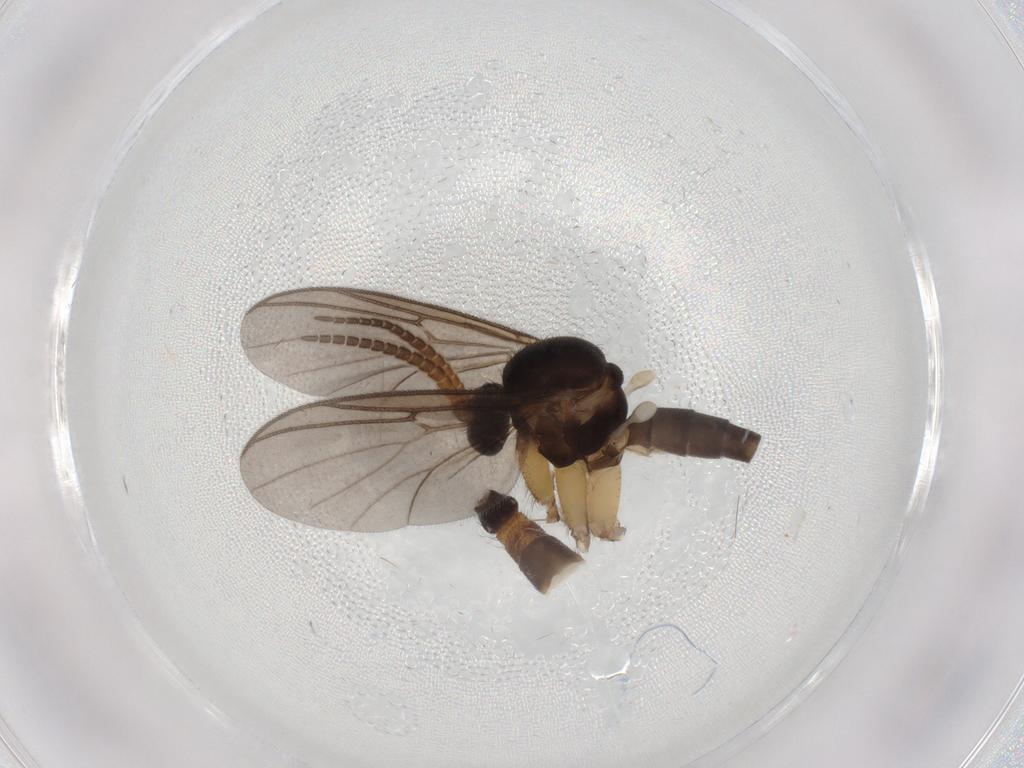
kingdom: Animalia
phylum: Arthropoda
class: Insecta
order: Diptera
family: Mycetophilidae
